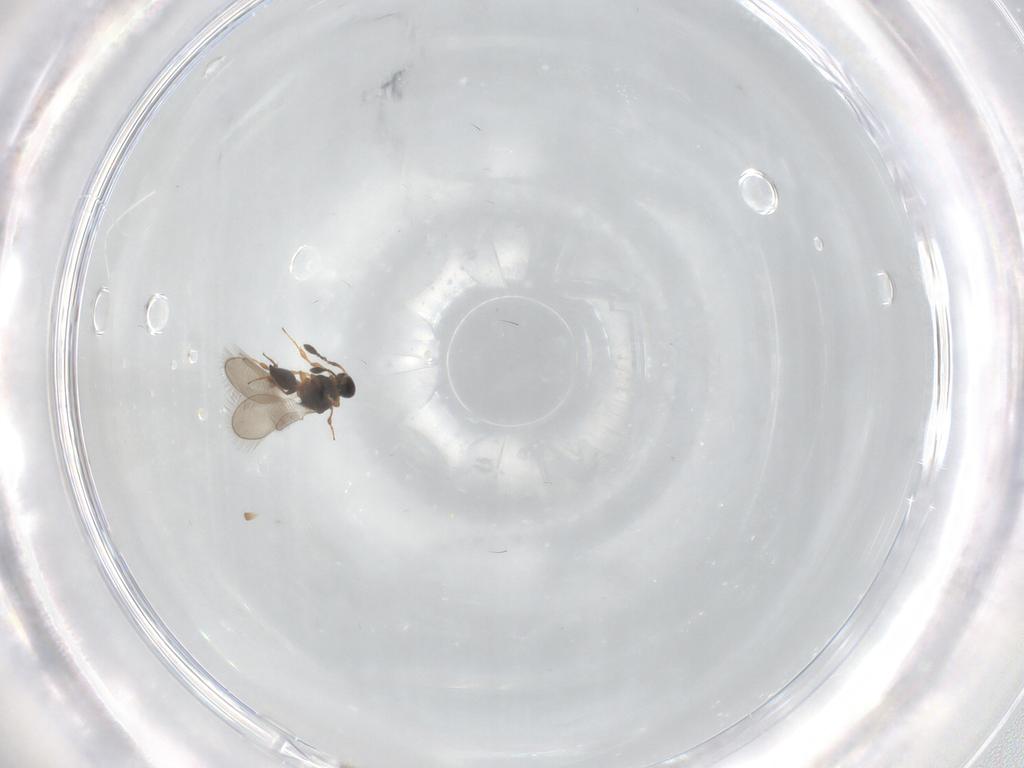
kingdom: Animalia
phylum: Arthropoda
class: Insecta
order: Hymenoptera
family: Platygastridae
